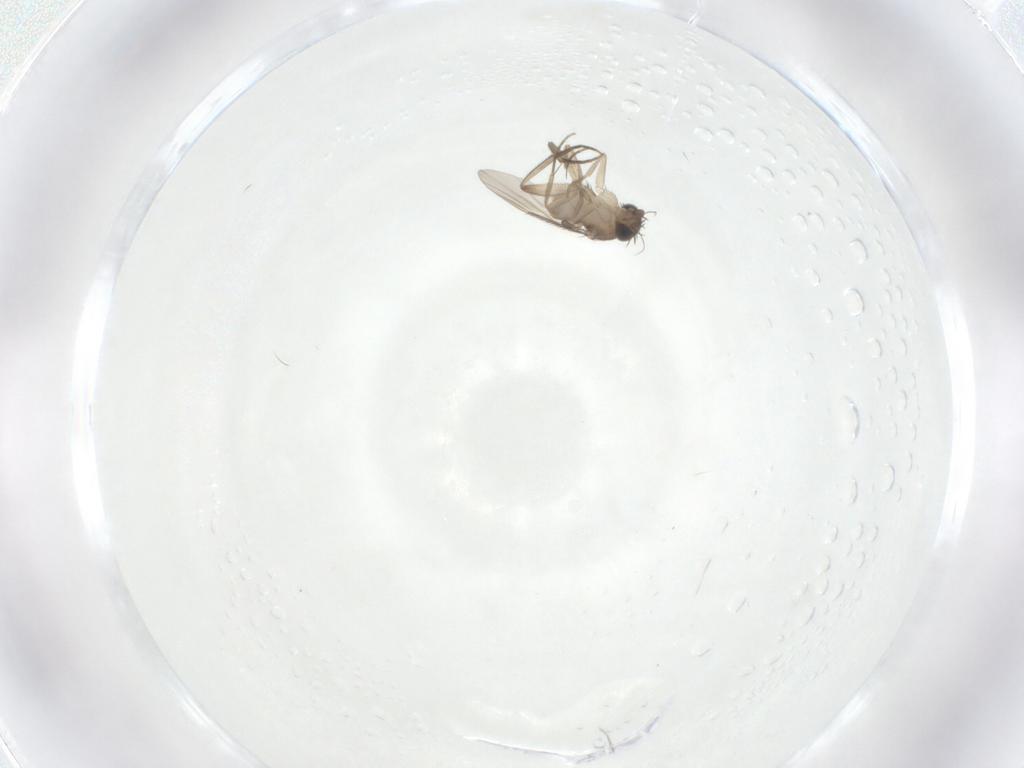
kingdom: Animalia
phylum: Arthropoda
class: Insecta
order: Diptera
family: Phoridae
